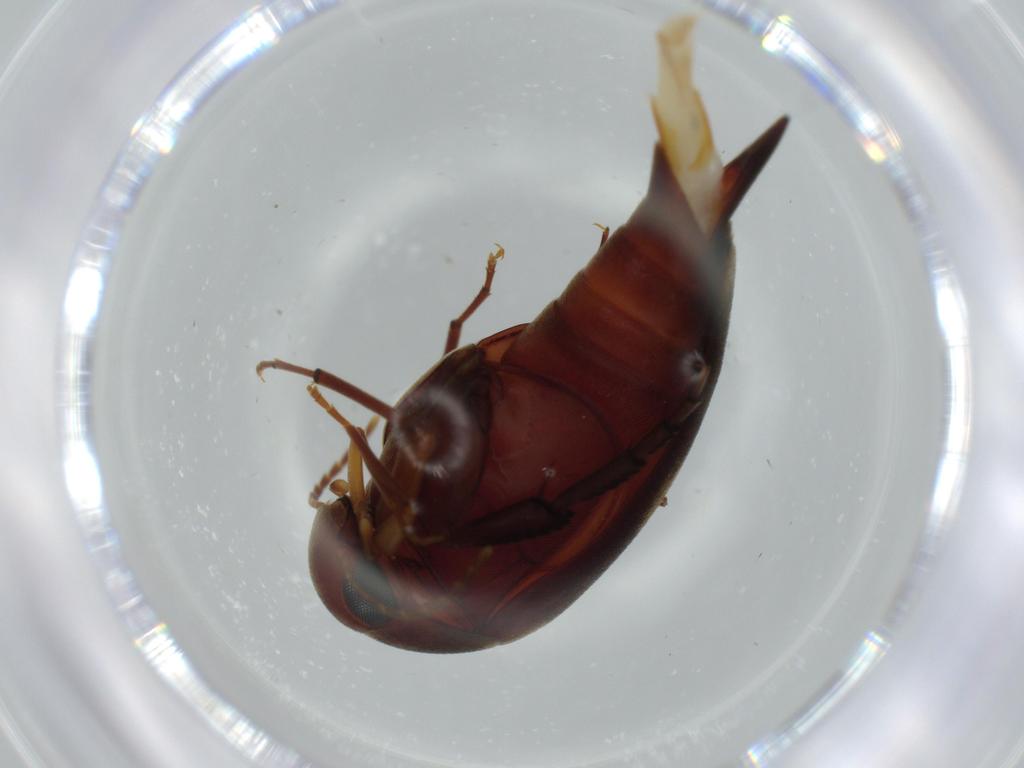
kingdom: Animalia
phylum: Arthropoda
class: Insecta
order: Coleoptera
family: Mordellidae
